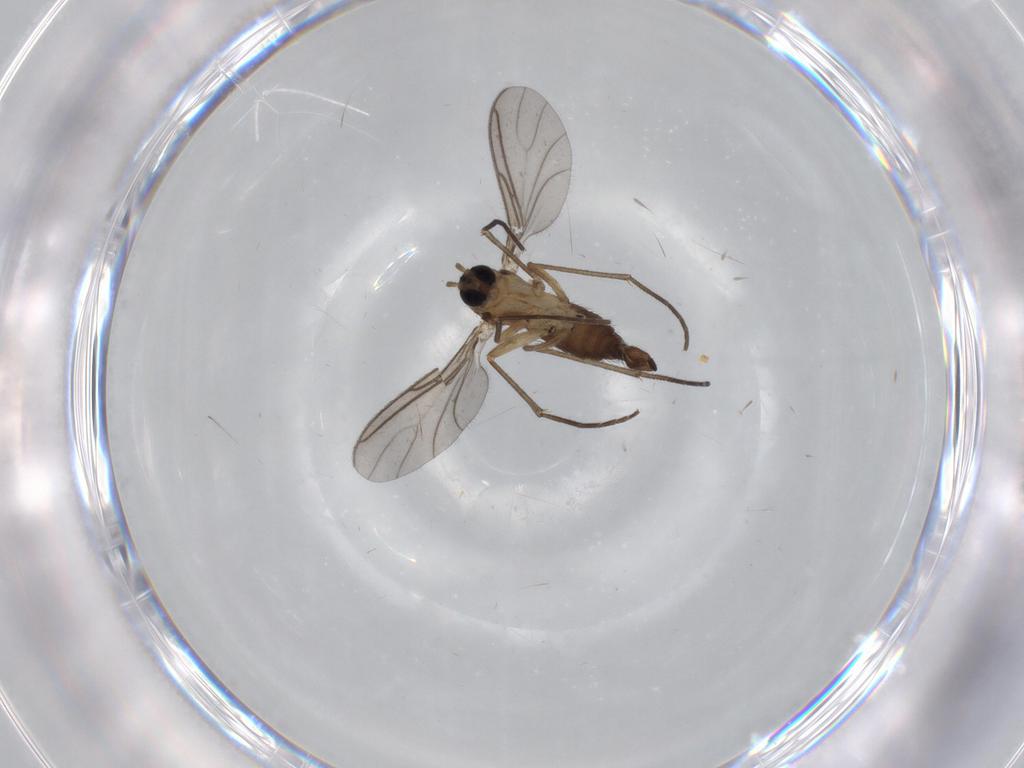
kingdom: Animalia
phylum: Arthropoda
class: Insecta
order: Diptera
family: Sciaridae
